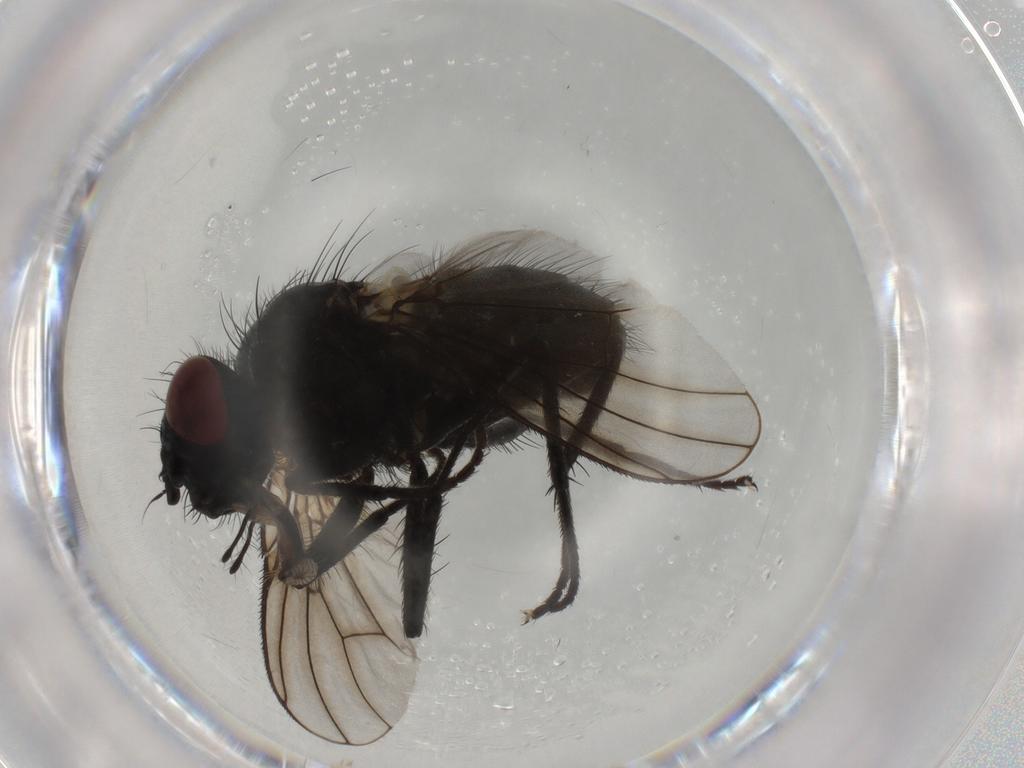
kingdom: Animalia
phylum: Arthropoda
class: Insecta
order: Diptera
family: Muscidae
